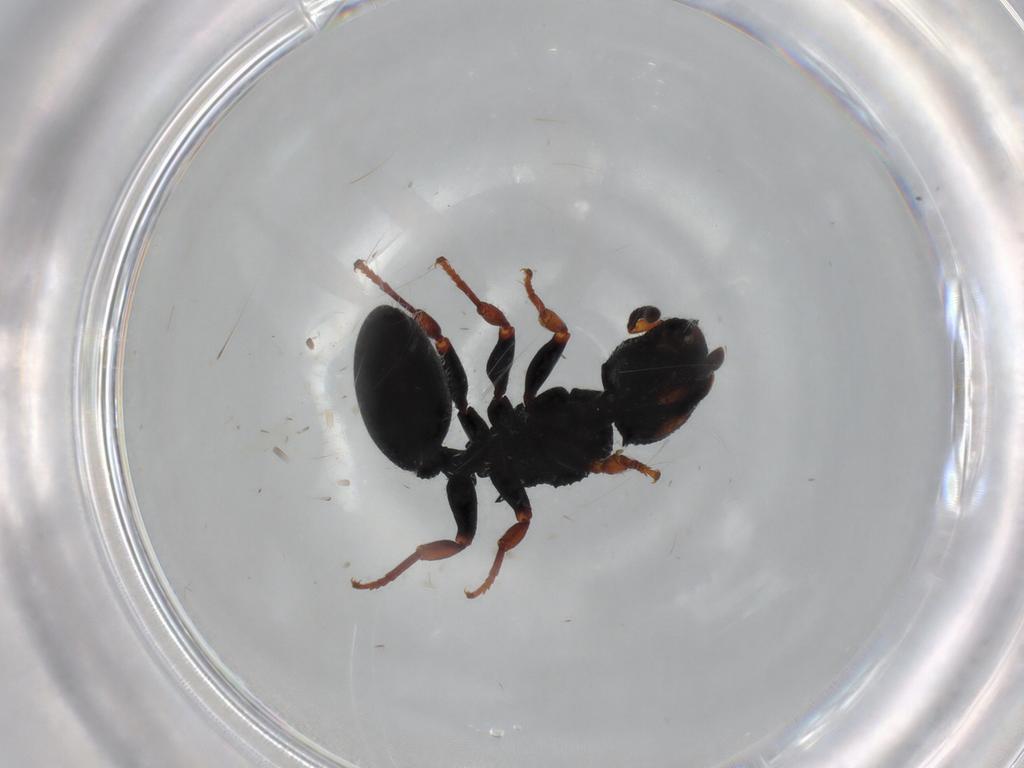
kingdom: Animalia
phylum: Arthropoda
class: Insecta
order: Hymenoptera
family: Formicidae
